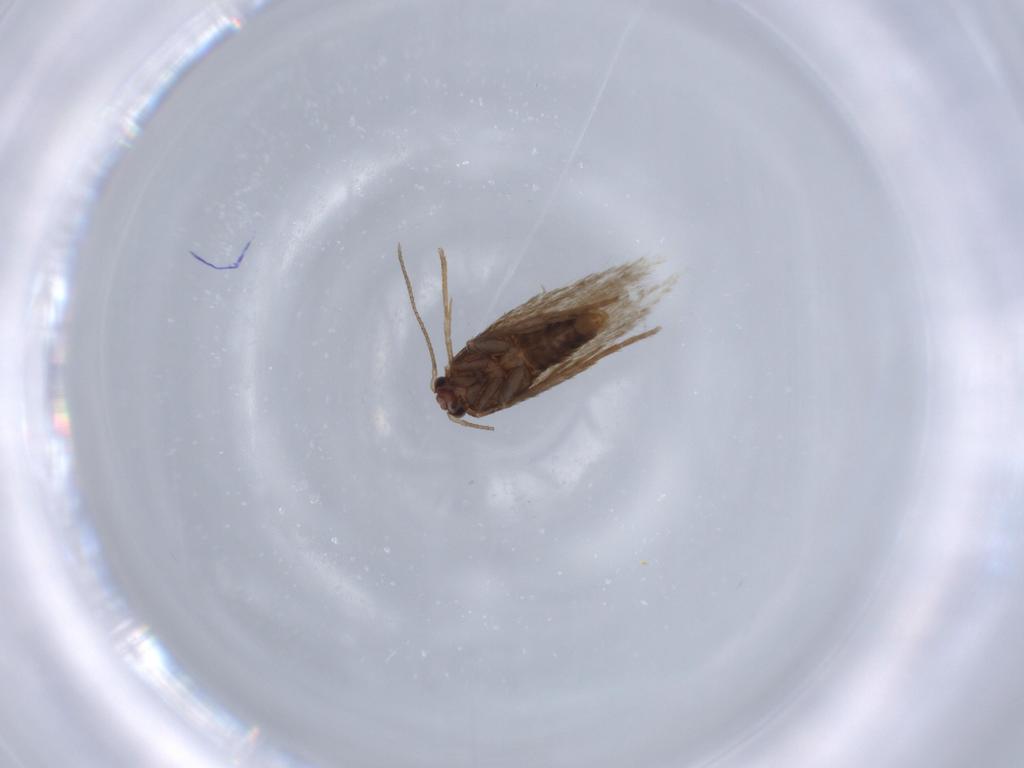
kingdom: Animalia
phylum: Arthropoda
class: Insecta
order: Lepidoptera
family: Nepticulidae
